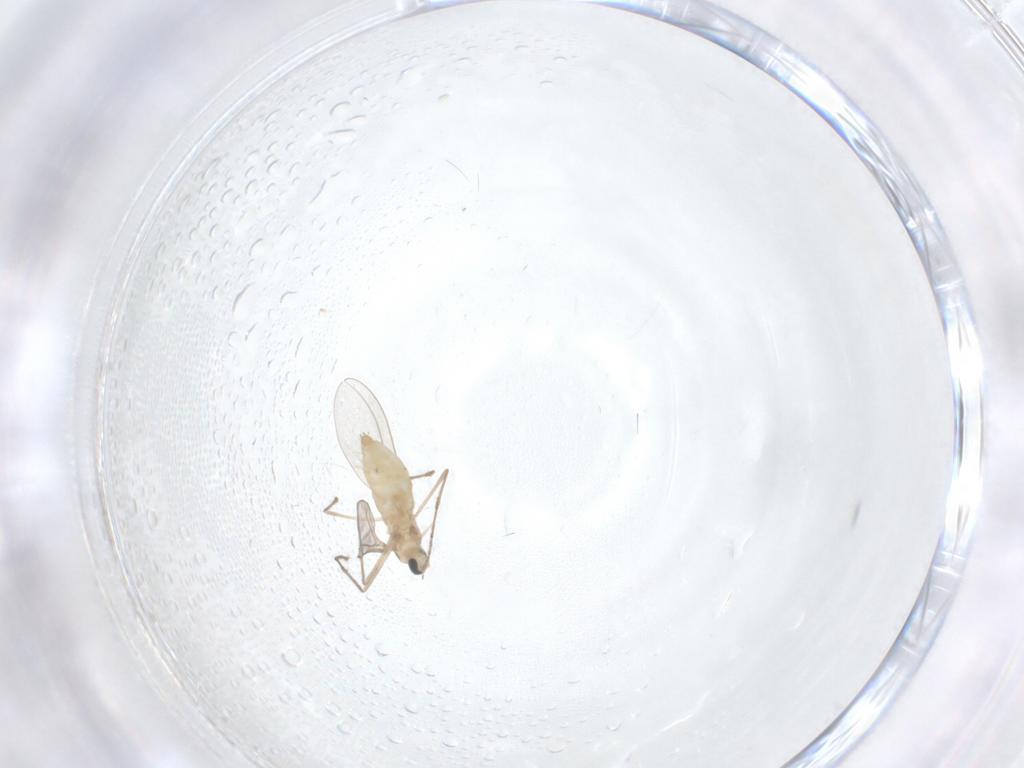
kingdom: Animalia
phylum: Arthropoda
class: Insecta
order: Diptera
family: Cecidomyiidae
